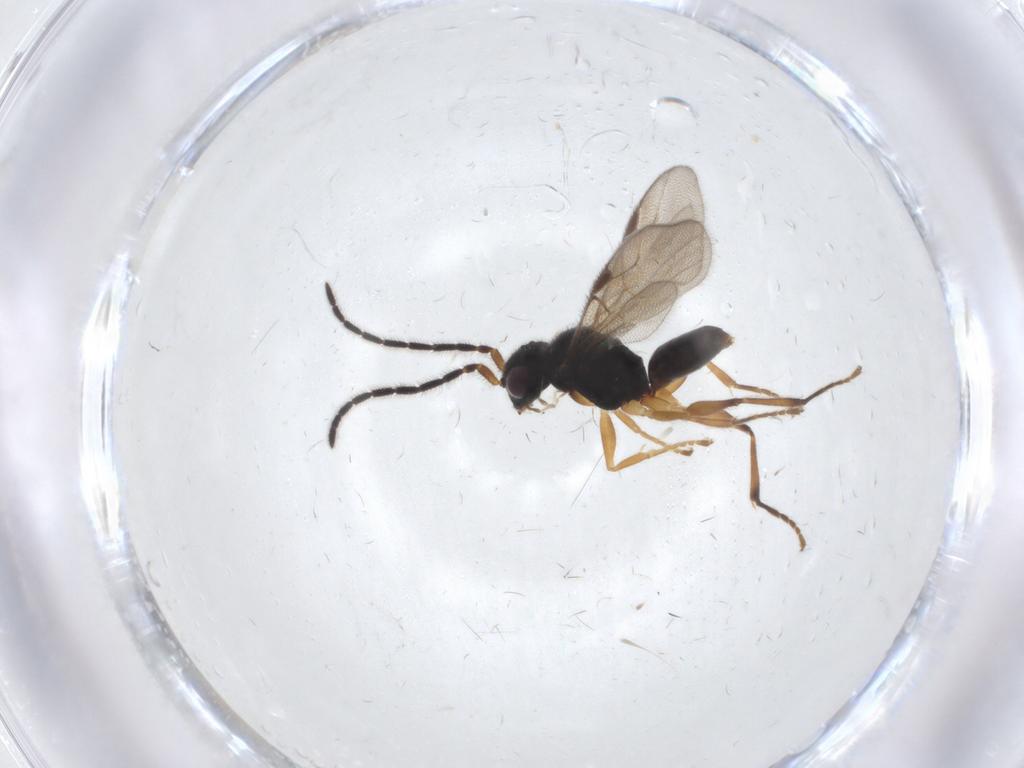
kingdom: Animalia
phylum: Arthropoda
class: Insecta
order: Hymenoptera
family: Dryinidae
